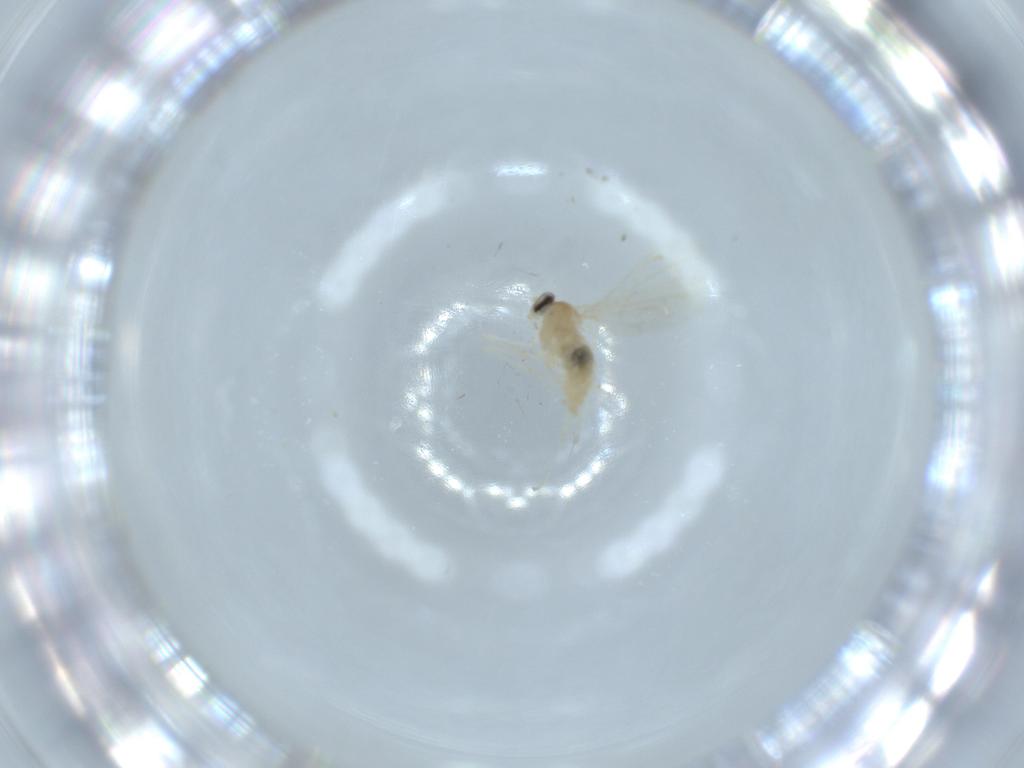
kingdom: Animalia
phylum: Arthropoda
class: Insecta
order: Diptera
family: Cecidomyiidae
